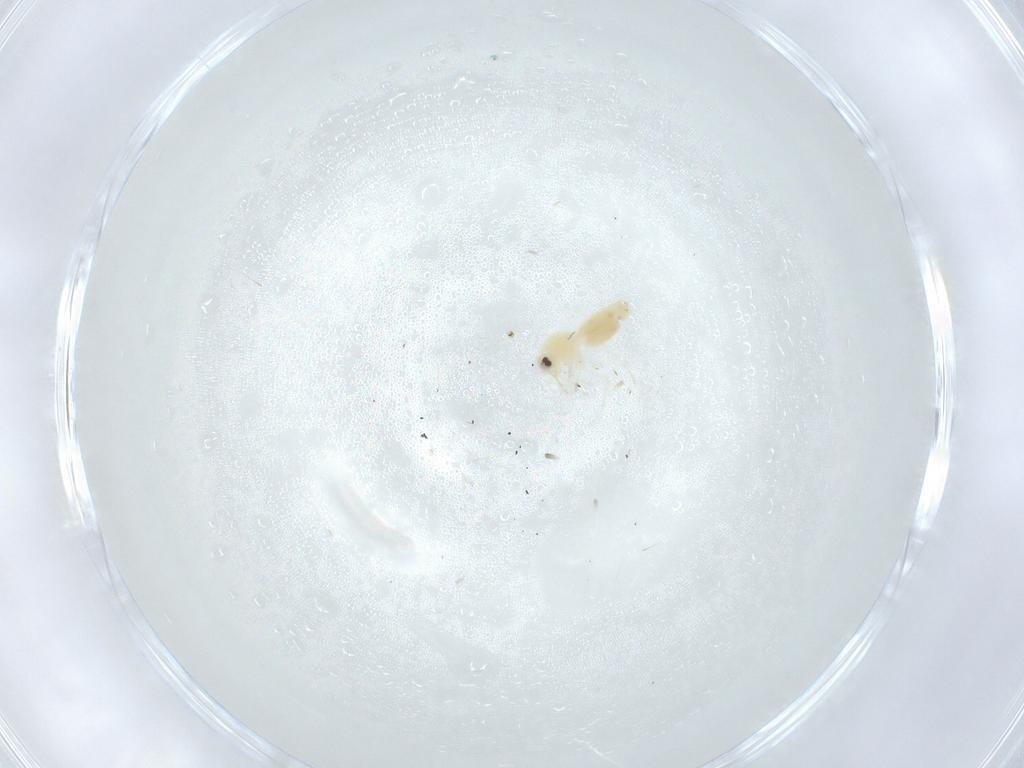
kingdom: Animalia
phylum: Arthropoda
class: Insecta
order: Hemiptera
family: Aleyrodidae
